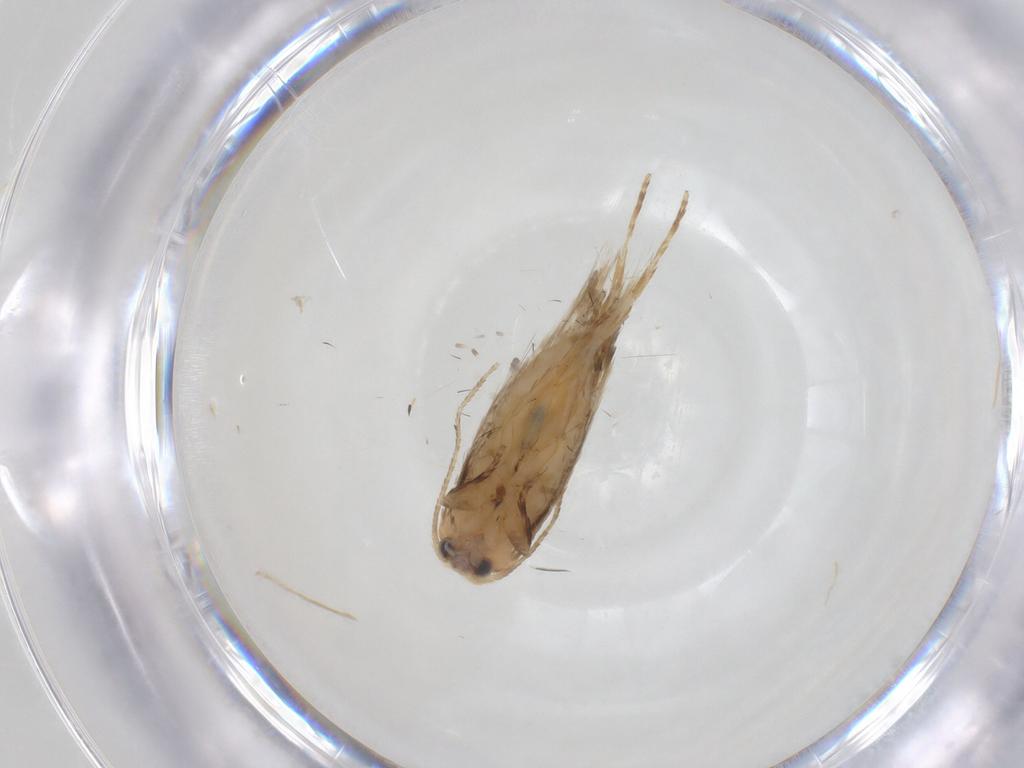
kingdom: Animalia
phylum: Arthropoda
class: Insecta
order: Lepidoptera
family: Nepticulidae
